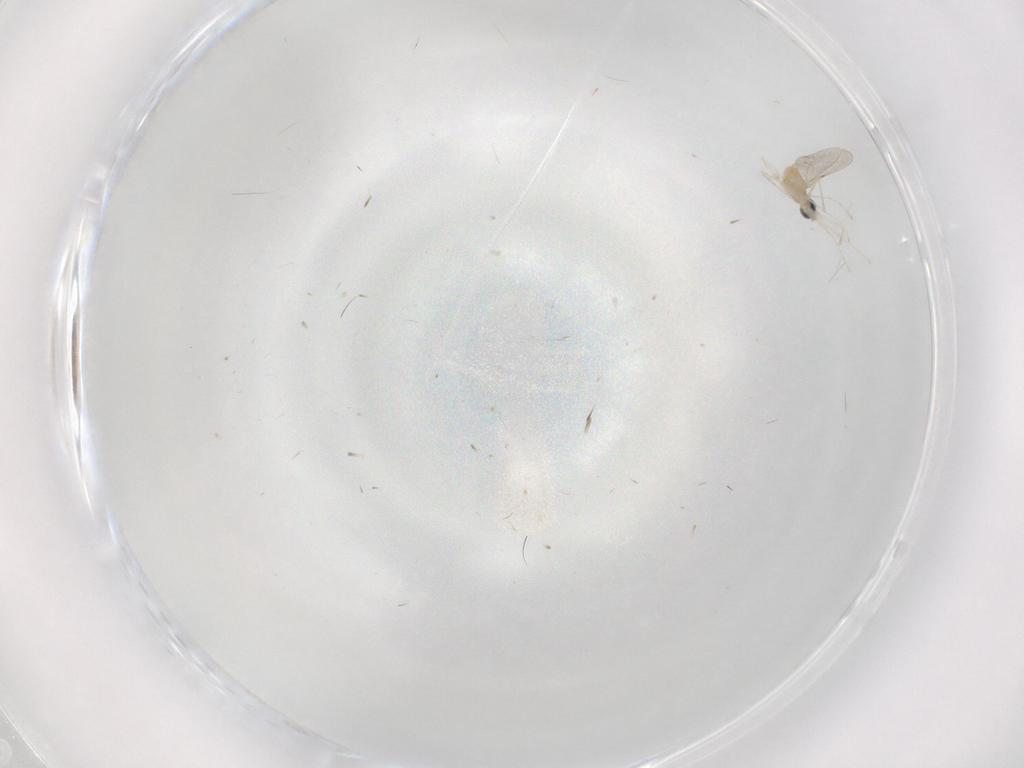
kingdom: Animalia
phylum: Arthropoda
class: Insecta
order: Diptera
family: Cecidomyiidae
